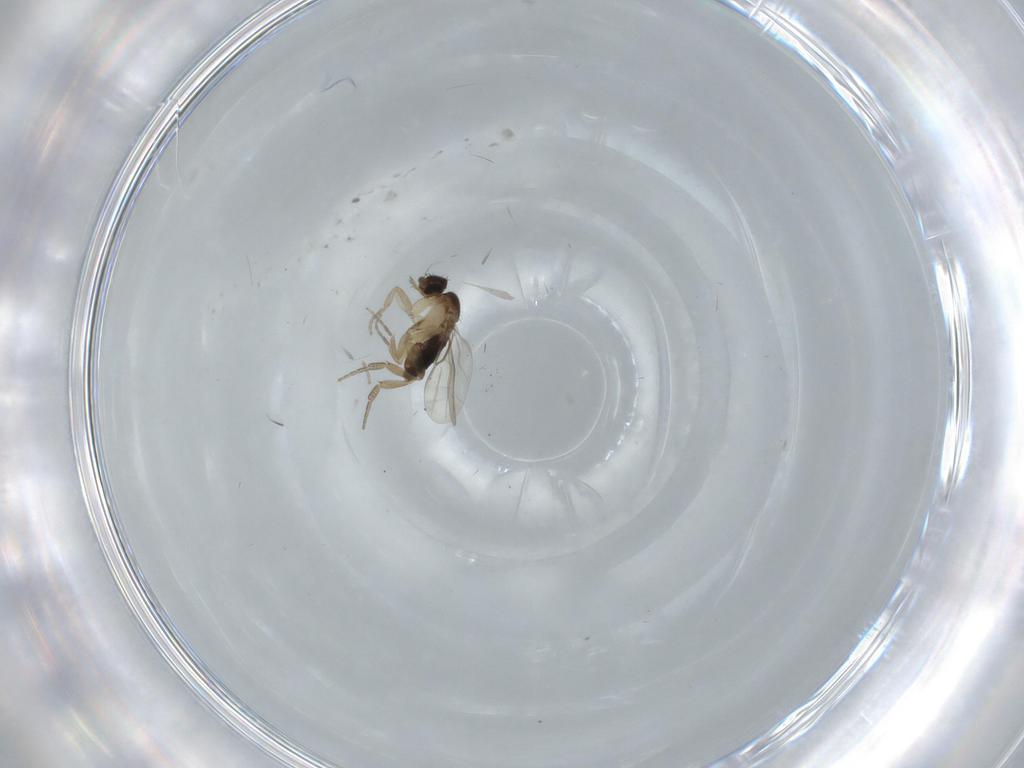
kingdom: Animalia
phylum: Arthropoda
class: Insecta
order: Diptera
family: Phoridae
